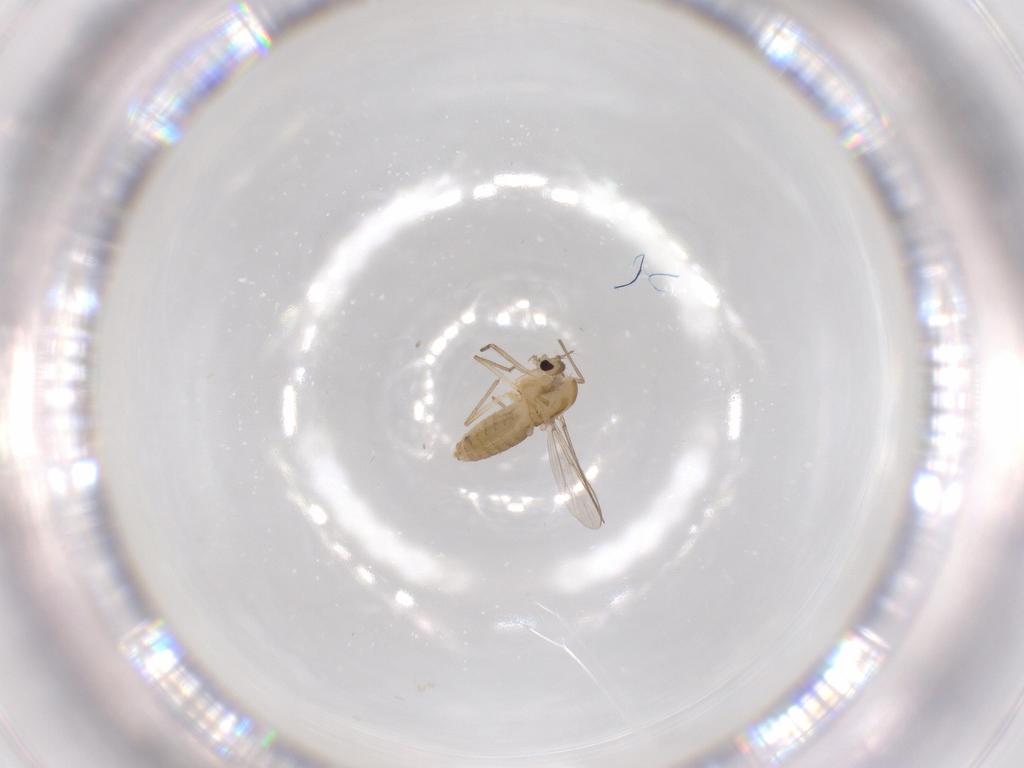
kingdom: Animalia
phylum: Arthropoda
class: Insecta
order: Diptera
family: Chironomidae
